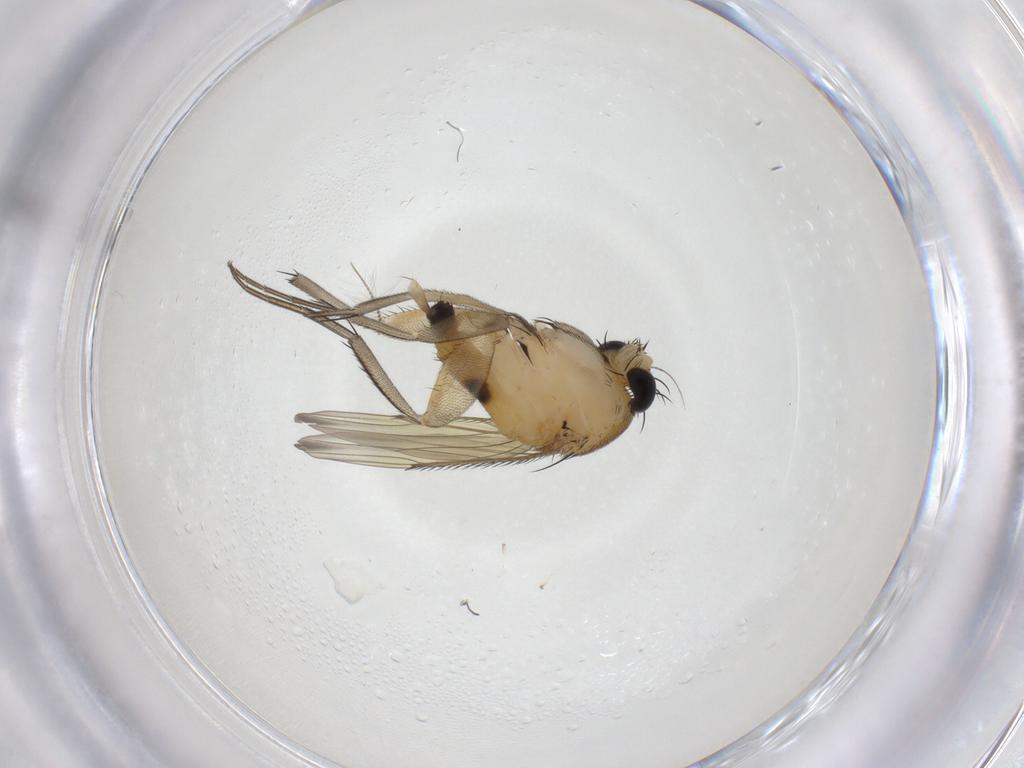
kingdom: Animalia
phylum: Arthropoda
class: Insecta
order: Diptera
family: Phoridae
